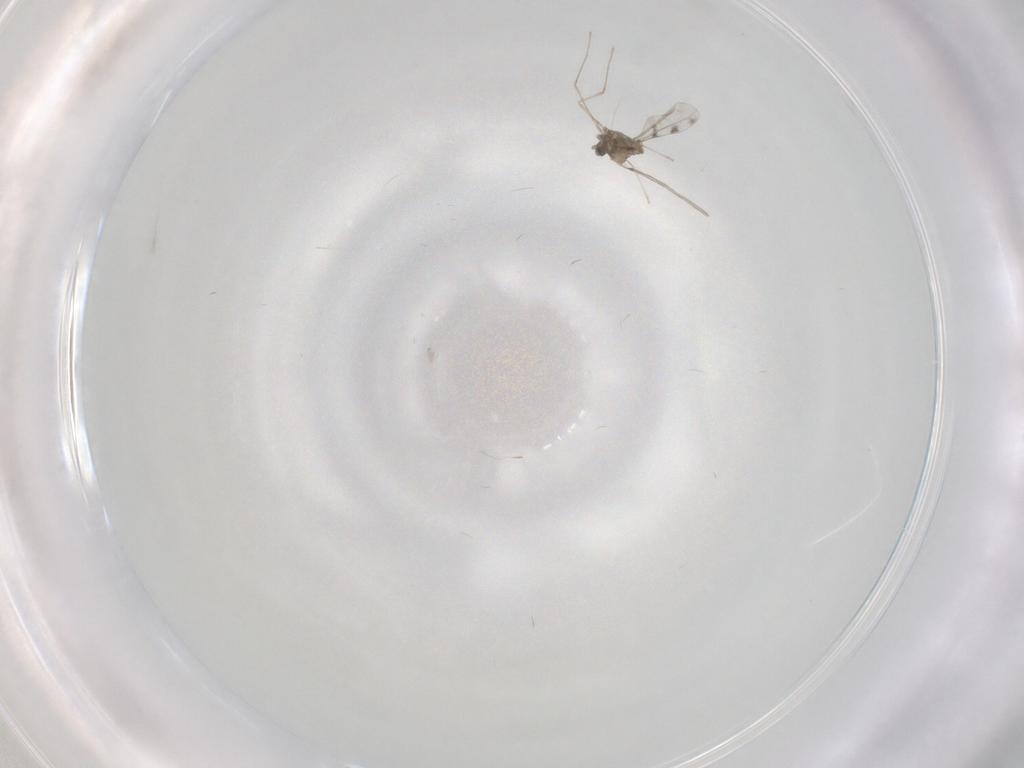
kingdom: Animalia
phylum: Arthropoda
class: Insecta
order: Diptera
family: Cecidomyiidae
